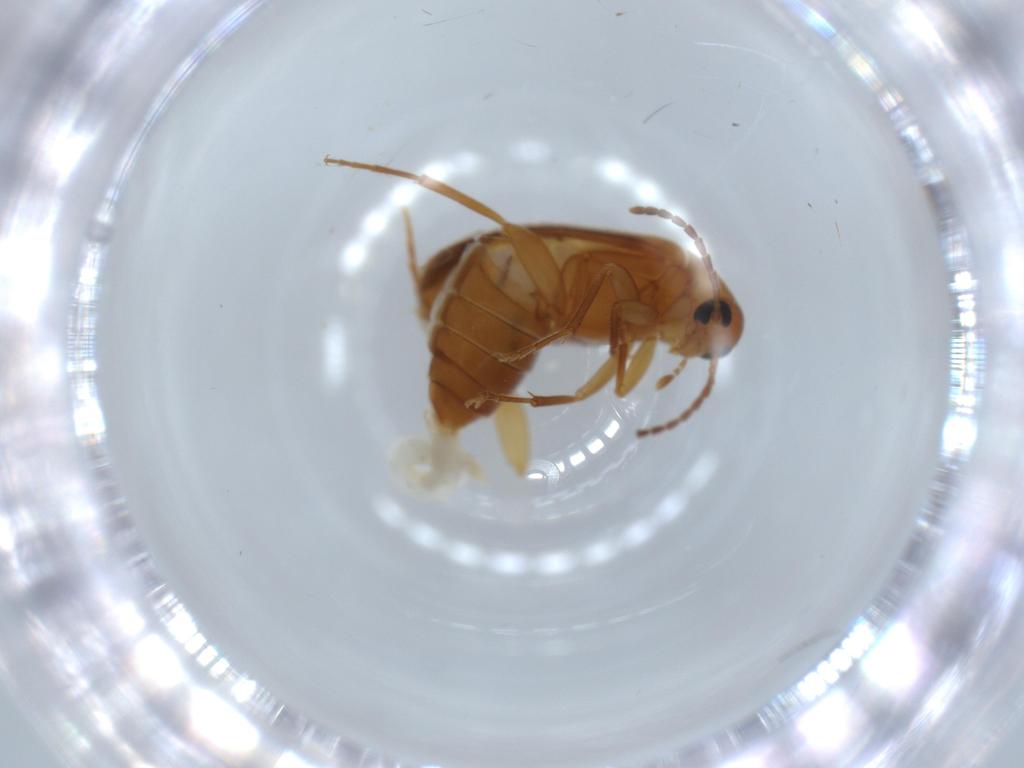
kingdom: Animalia
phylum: Arthropoda
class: Insecta
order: Coleoptera
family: Scraptiidae
